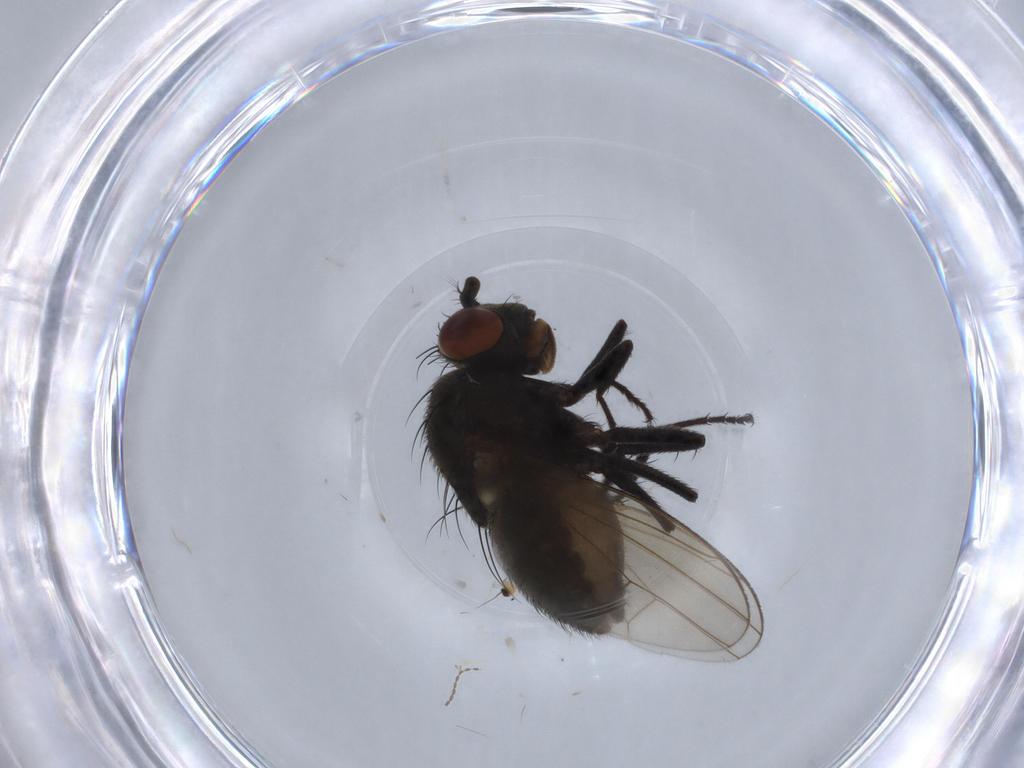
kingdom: Animalia
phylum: Arthropoda
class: Insecta
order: Diptera
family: Ephydridae
